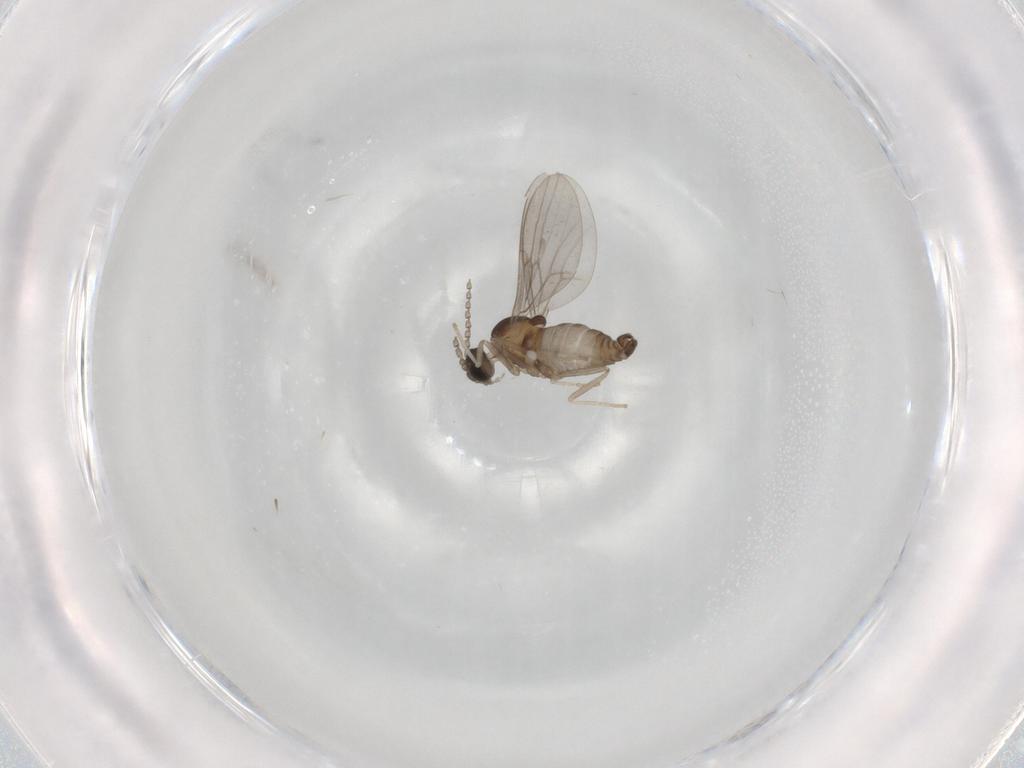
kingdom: Animalia
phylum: Arthropoda
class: Insecta
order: Diptera
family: Cecidomyiidae
